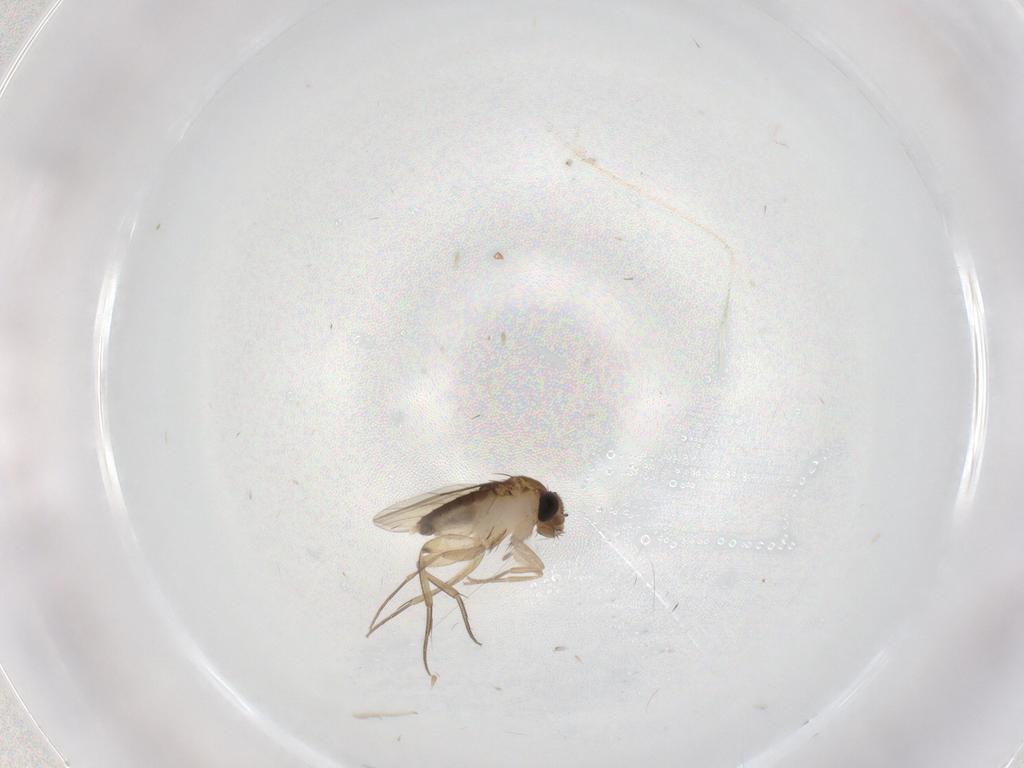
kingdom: Animalia
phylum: Arthropoda
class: Insecta
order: Diptera
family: Phoridae
